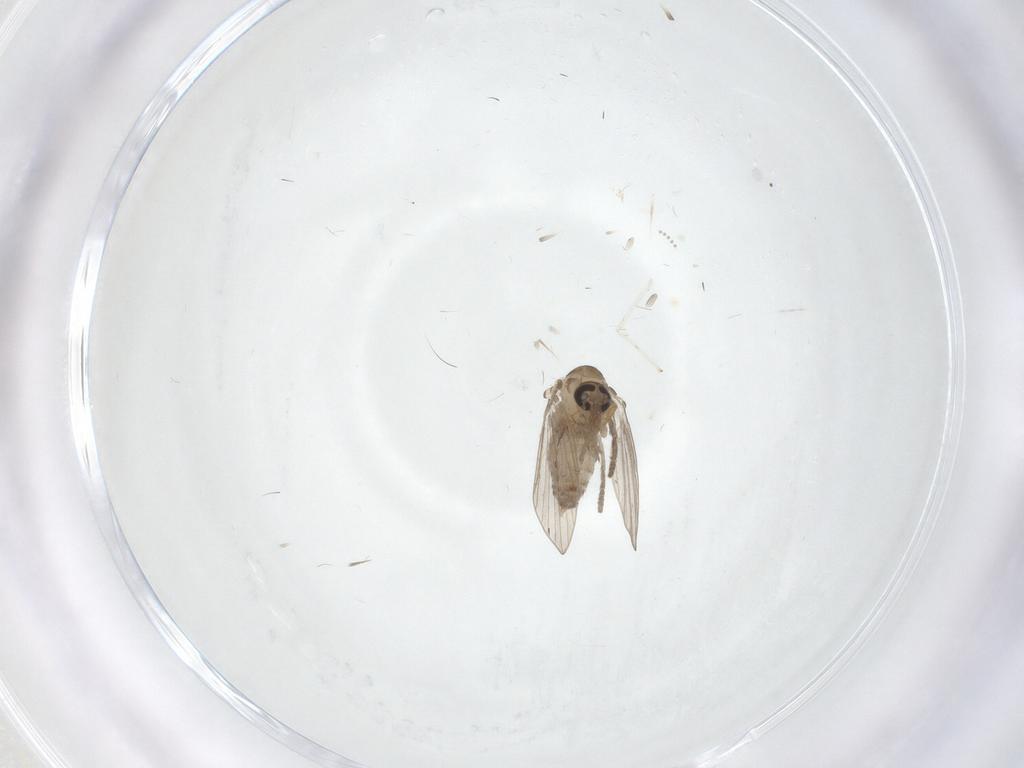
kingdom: Animalia
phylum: Arthropoda
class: Insecta
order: Diptera
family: Psychodidae
